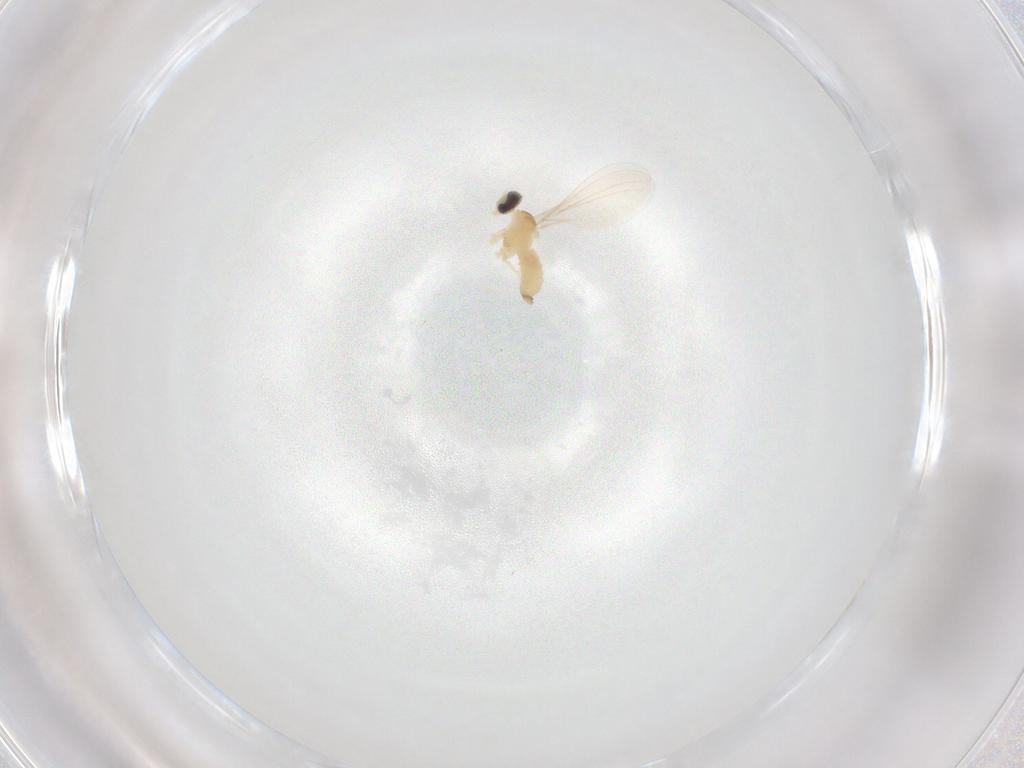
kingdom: Animalia
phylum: Arthropoda
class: Insecta
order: Diptera
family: Cecidomyiidae
